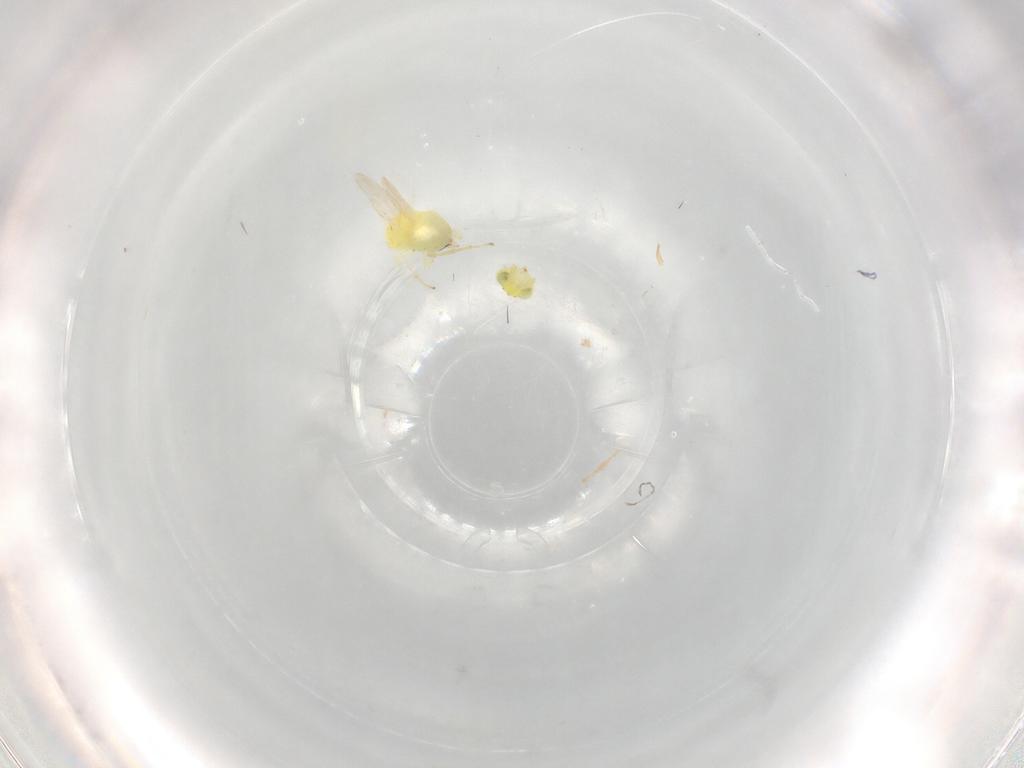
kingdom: Animalia
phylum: Arthropoda
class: Insecta
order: Hymenoptera
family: Aphelinidae
